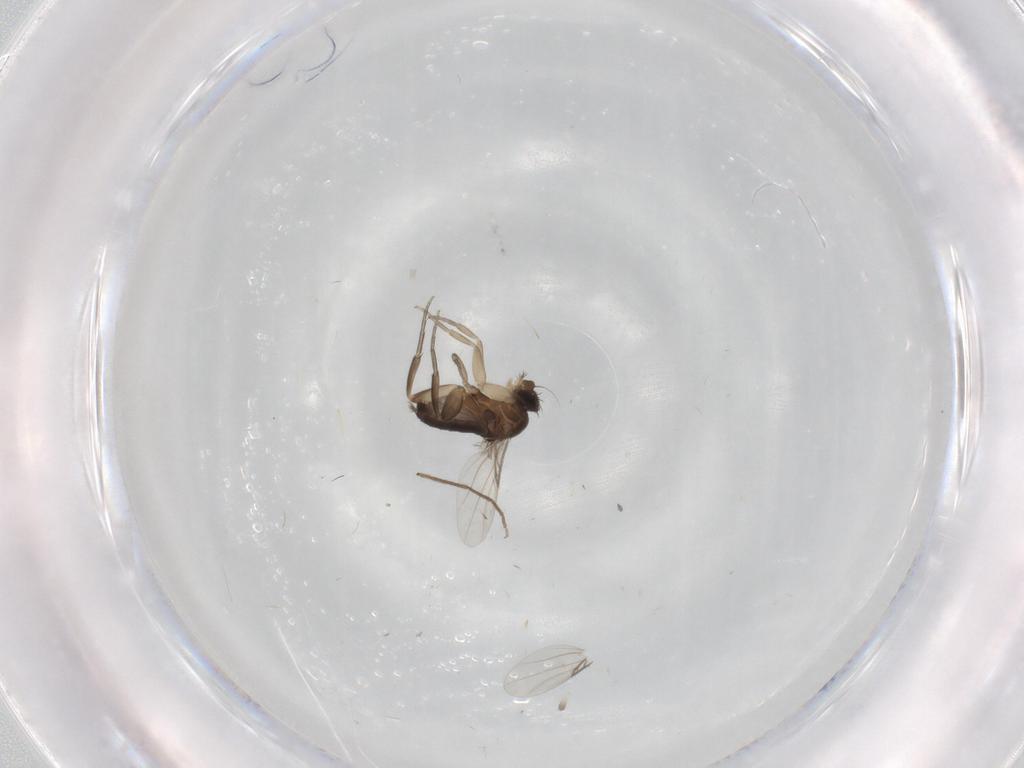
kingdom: Animalia
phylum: Arthropoda
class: Insecta
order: Diptera
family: Phoridae
